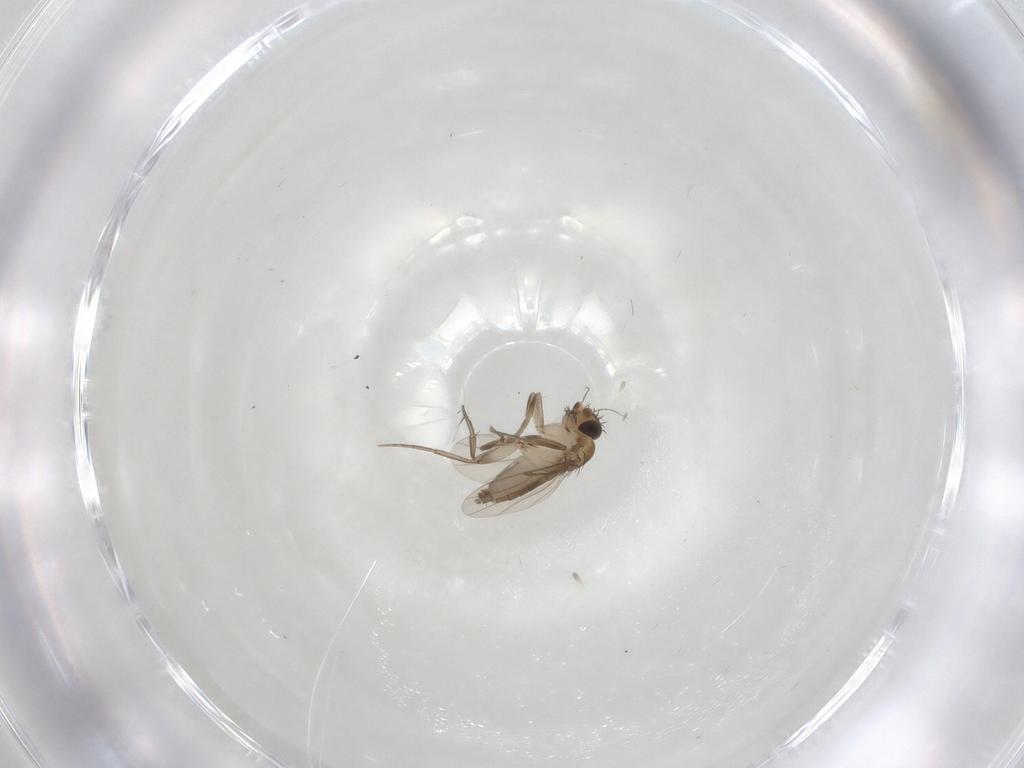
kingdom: Animalia
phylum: Arthropoda
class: Insecta
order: Diptera
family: Phoridae
